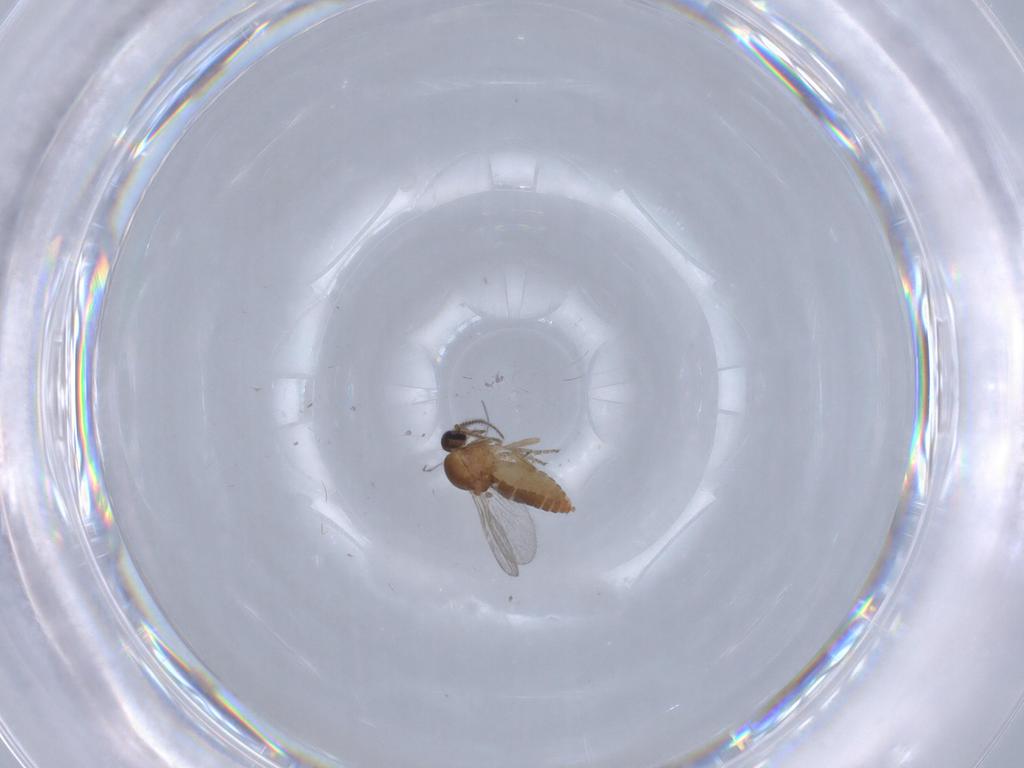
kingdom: Animalia
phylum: Arthropoda
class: Insecta
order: Diptera
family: Ceratopogonidae
